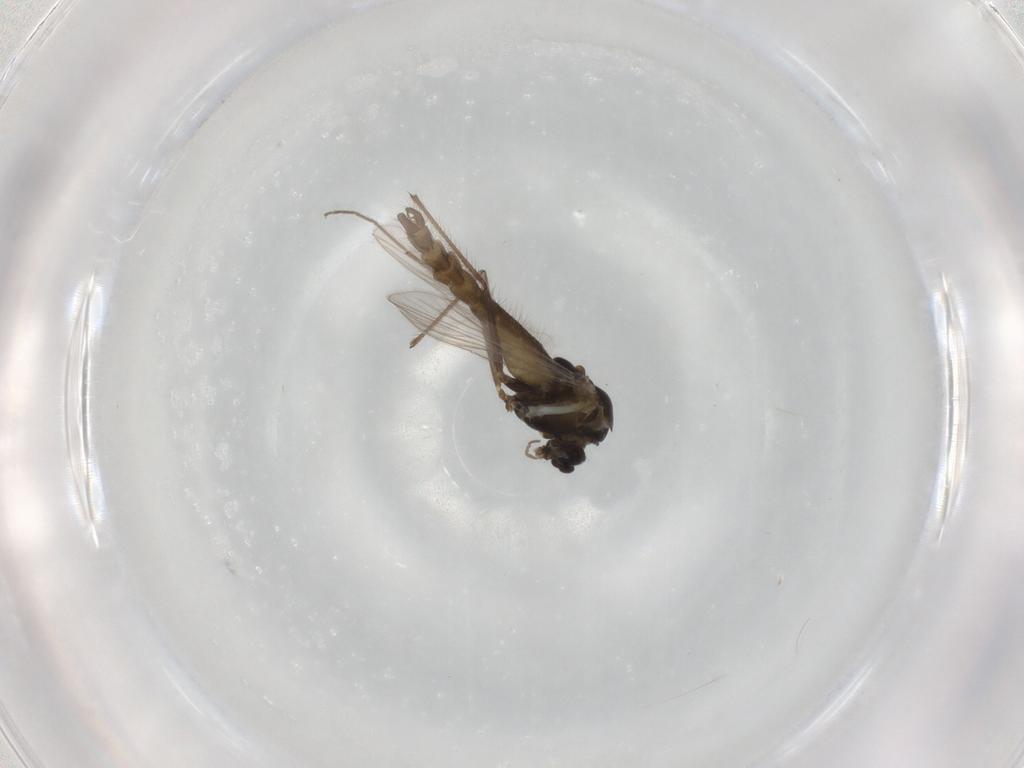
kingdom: Animalia
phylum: Arthropoda
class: Insecta
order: Diptera
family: Chironomidae
